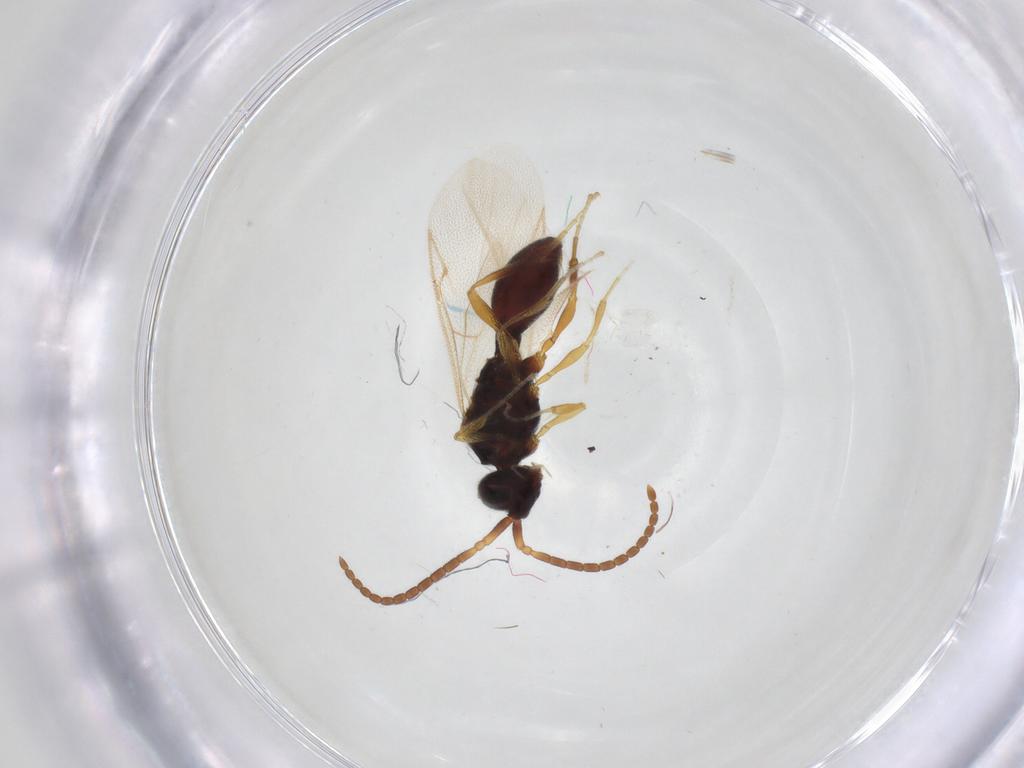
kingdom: Animalia
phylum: Arthropoda
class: Insecta
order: Hymenoptera
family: Diapriidae
